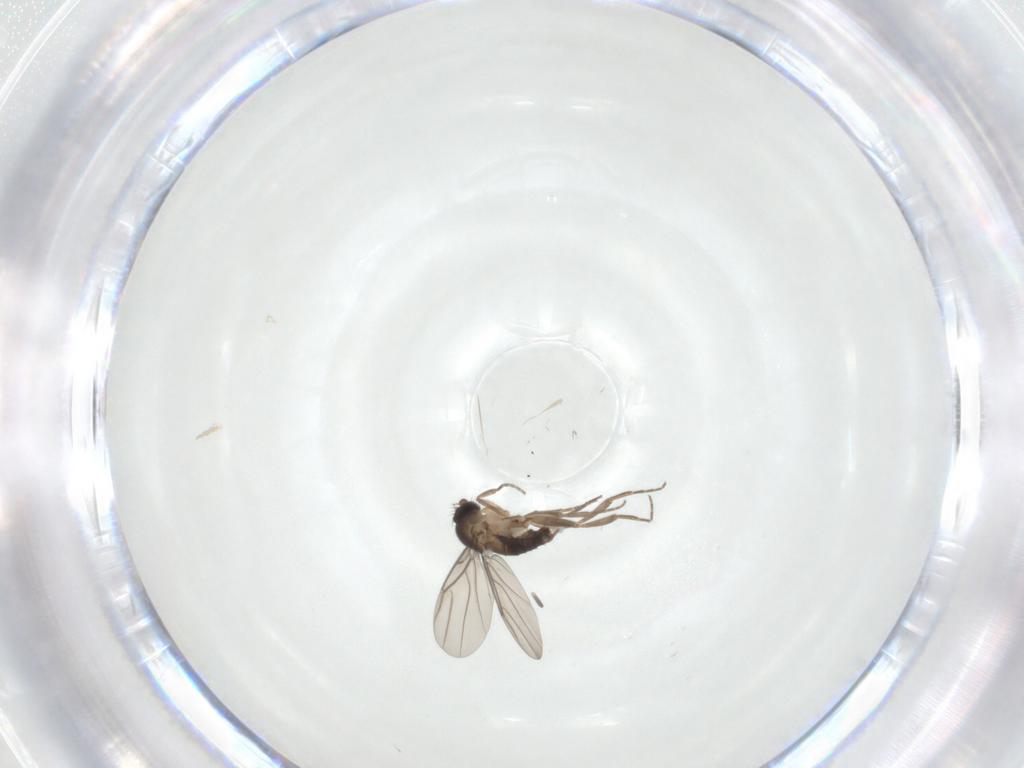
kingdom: Animalia
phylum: Arthropoda
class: Insecta
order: Diptera
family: Phoridae
